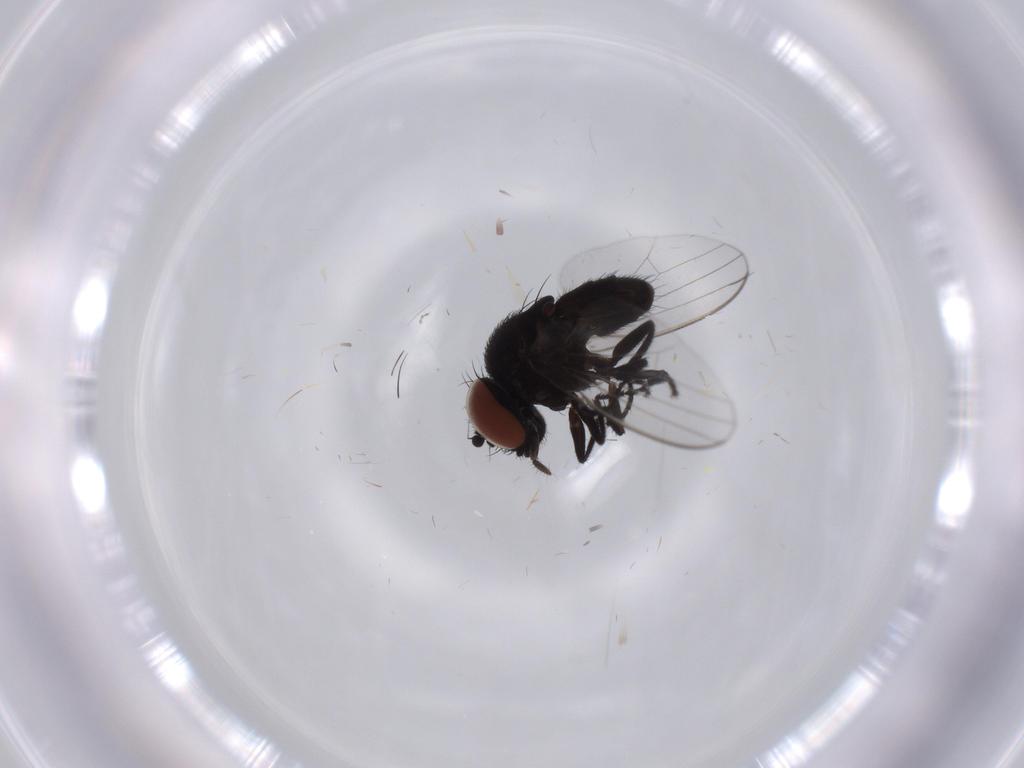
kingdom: Animalia
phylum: Arthropoda
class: Insecta
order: Diptera
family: Milichiidae
